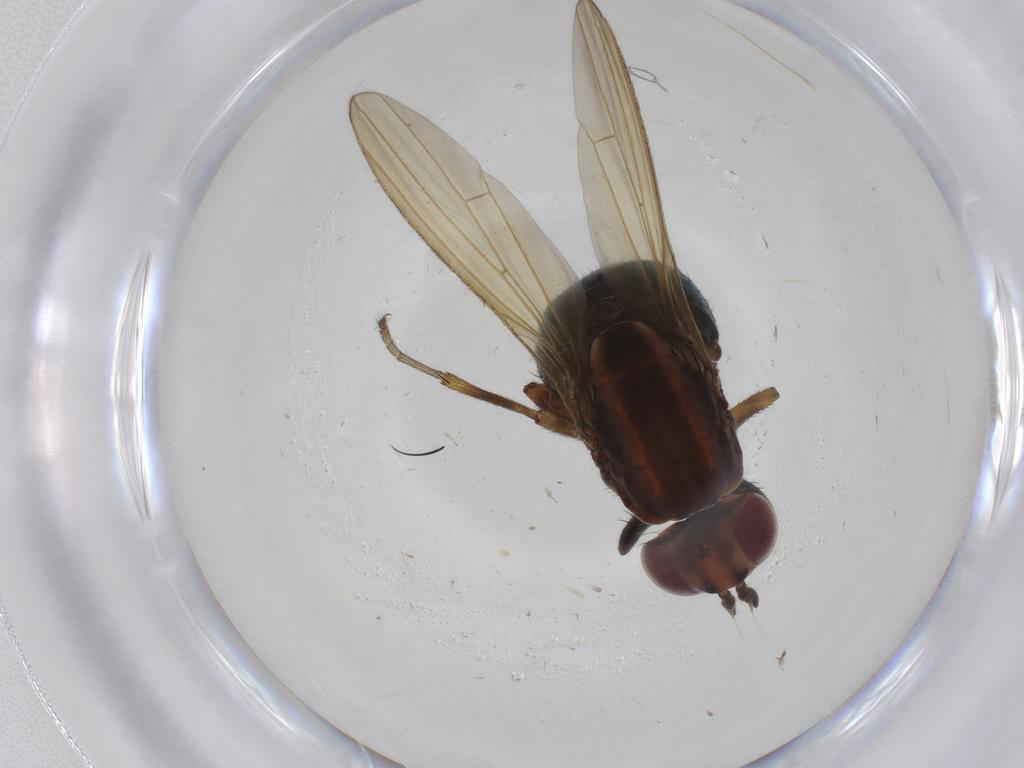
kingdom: Animalia
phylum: Arthropoda
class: Insecta
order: Diptera
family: Lauxaniidae
